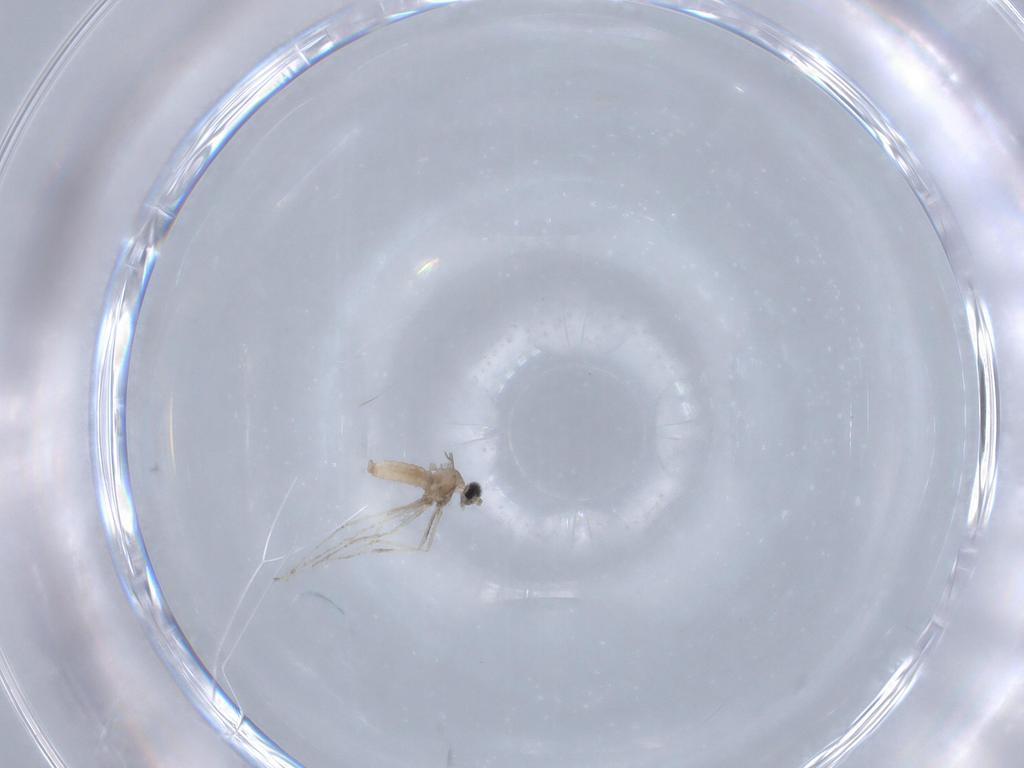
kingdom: Animalia
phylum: Arthropoda
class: Insecta
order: Diptera
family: Cecidomyiidae
